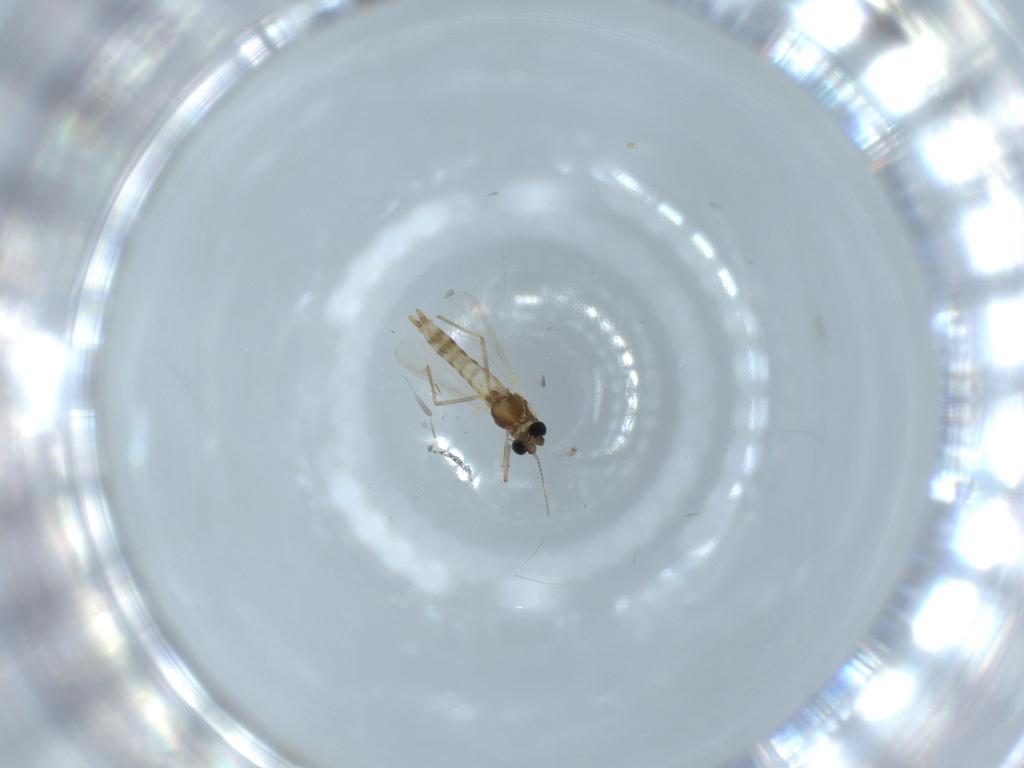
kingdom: Animalia
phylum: Arthropoda
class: Insecta
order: Diptera
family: Chironomidae
